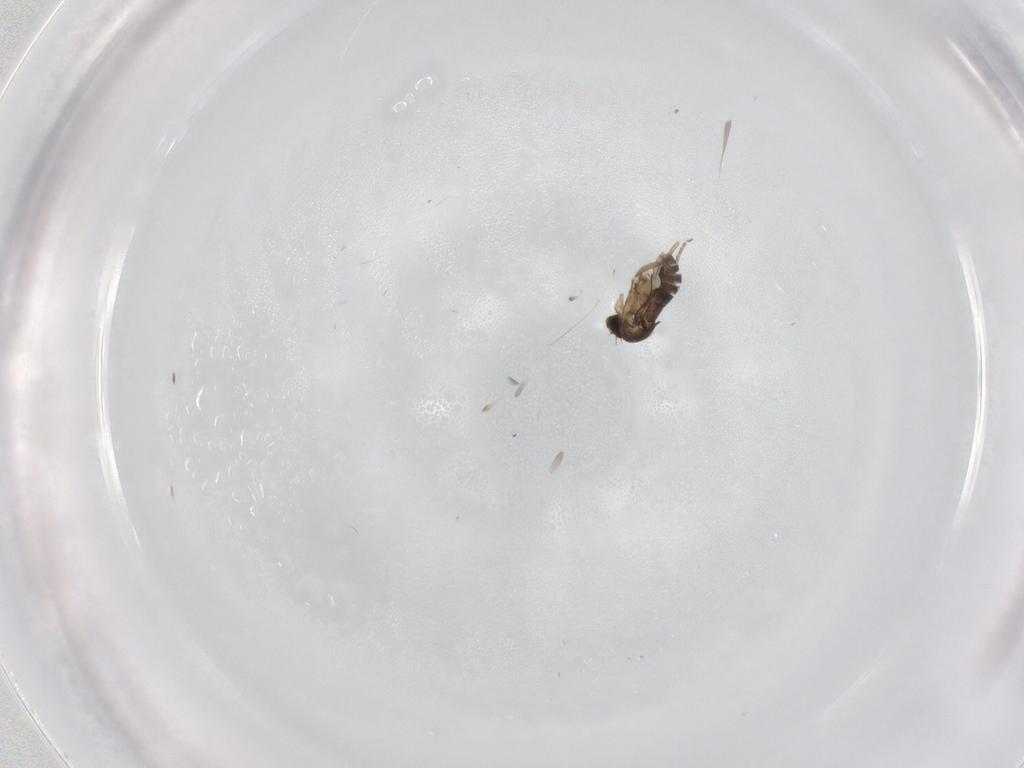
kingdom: Animalia
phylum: Arthropoda
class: Insecta
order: Diptera
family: Phoridae
